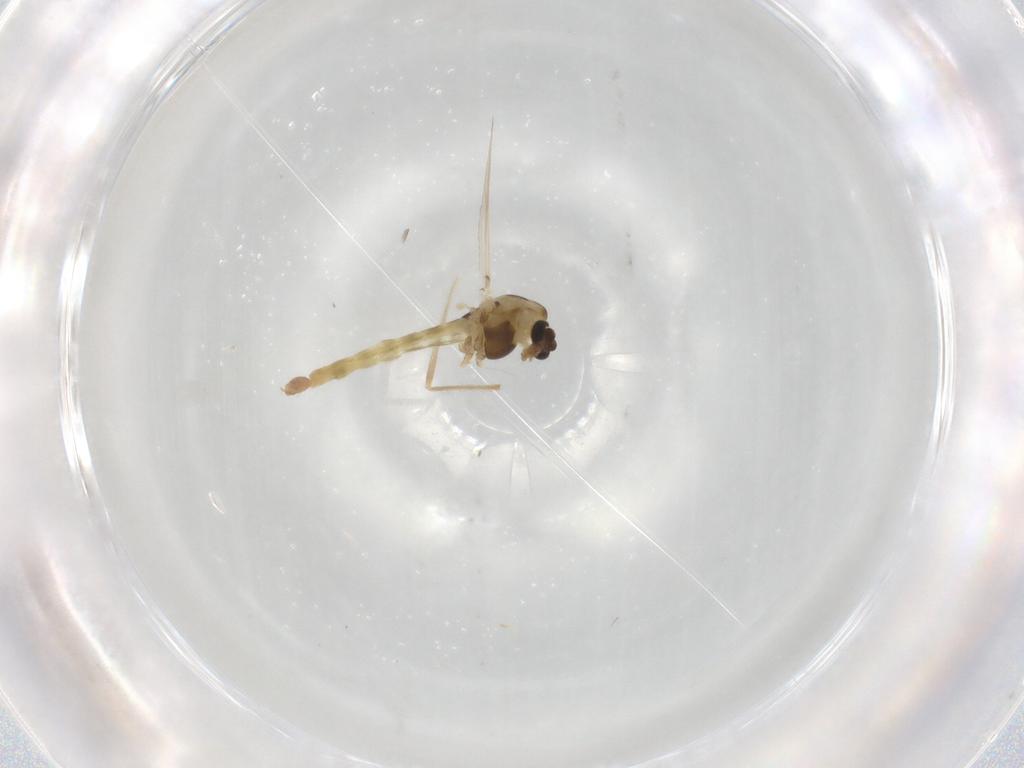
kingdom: Animalia
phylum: Arthropoda
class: Insecta
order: Diptera
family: Chironomidae
